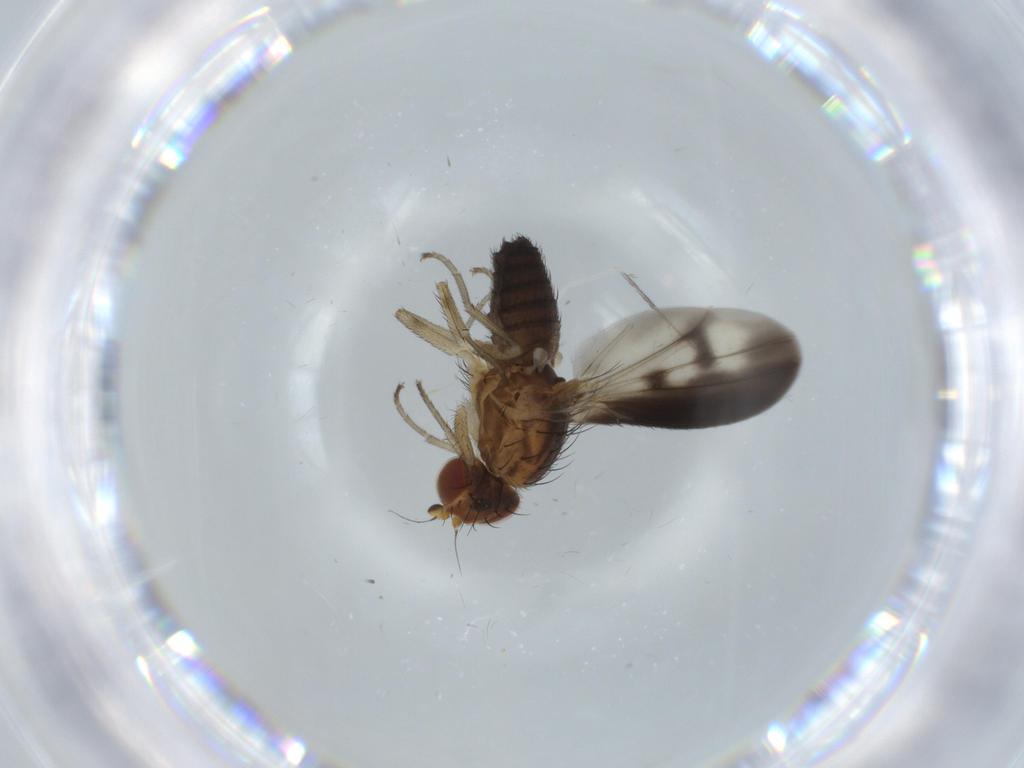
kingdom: Animalia
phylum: Arthropoda
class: Insecta
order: Diptera
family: Heleomyzidae
